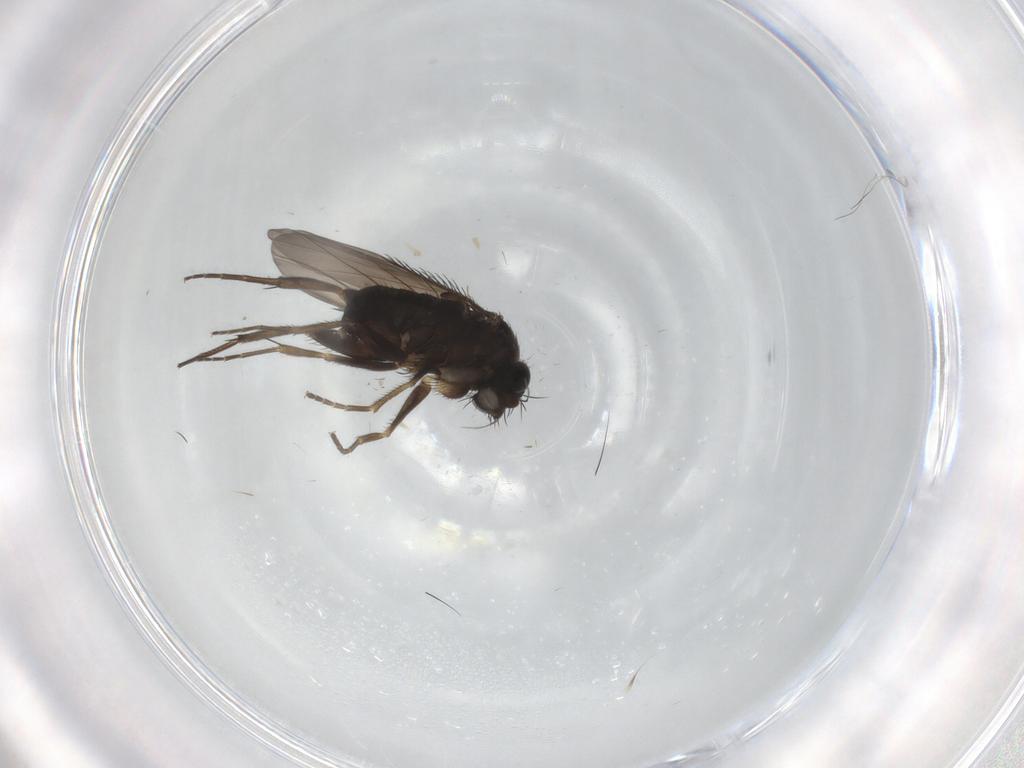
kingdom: Animalia
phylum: Arthropoda
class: Insecta
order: Diptera
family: Phoridae
